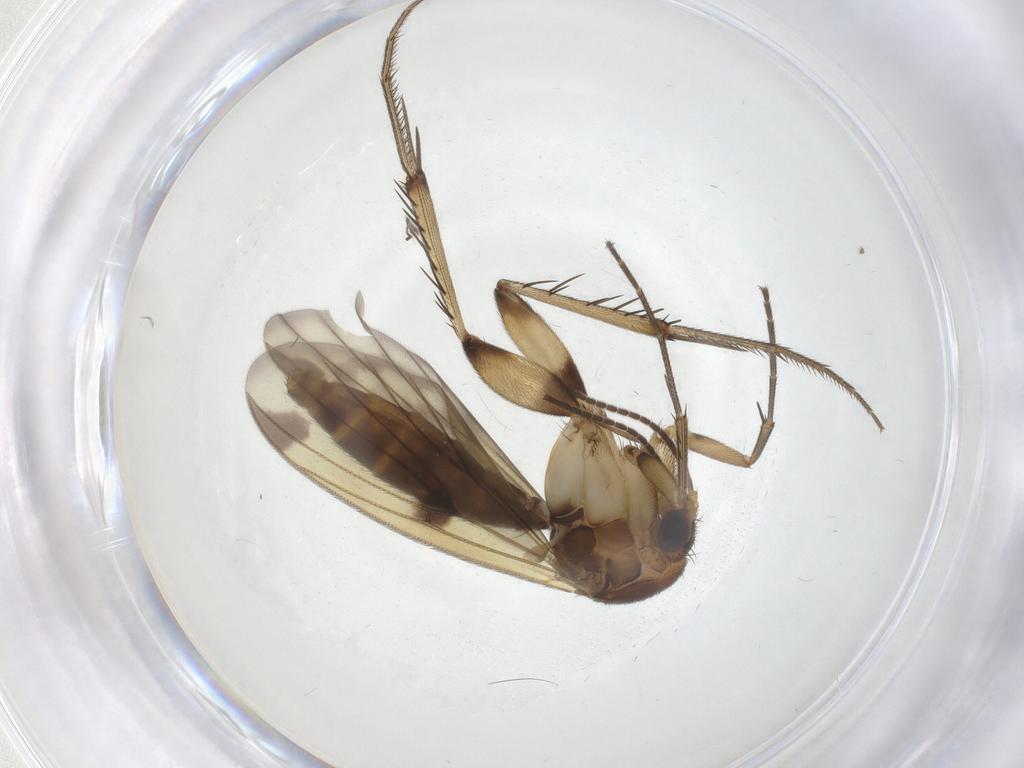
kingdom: Animalia
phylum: Arthropoda
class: Insecta
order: Diptera
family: Chironomidae
